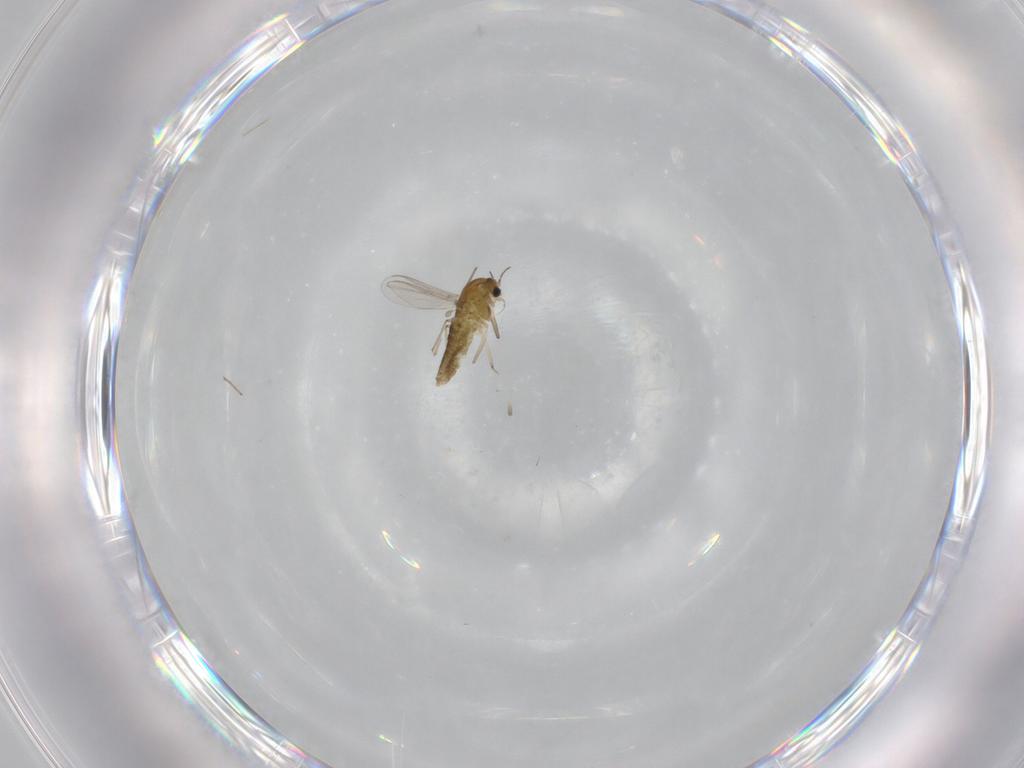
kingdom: Animalia
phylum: Arthropoda
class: Insecta
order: Diptera
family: Chironomidae
